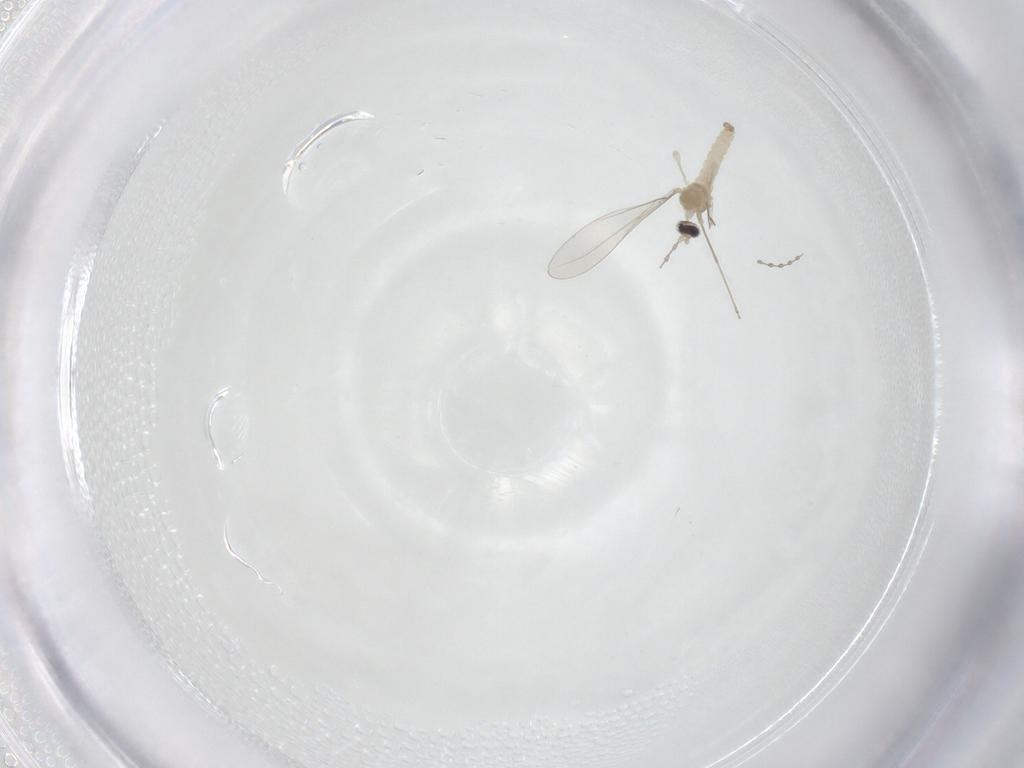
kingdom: Animalia
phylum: Arthropoda
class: Insecta
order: Diptera
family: Cecidomyiidae
